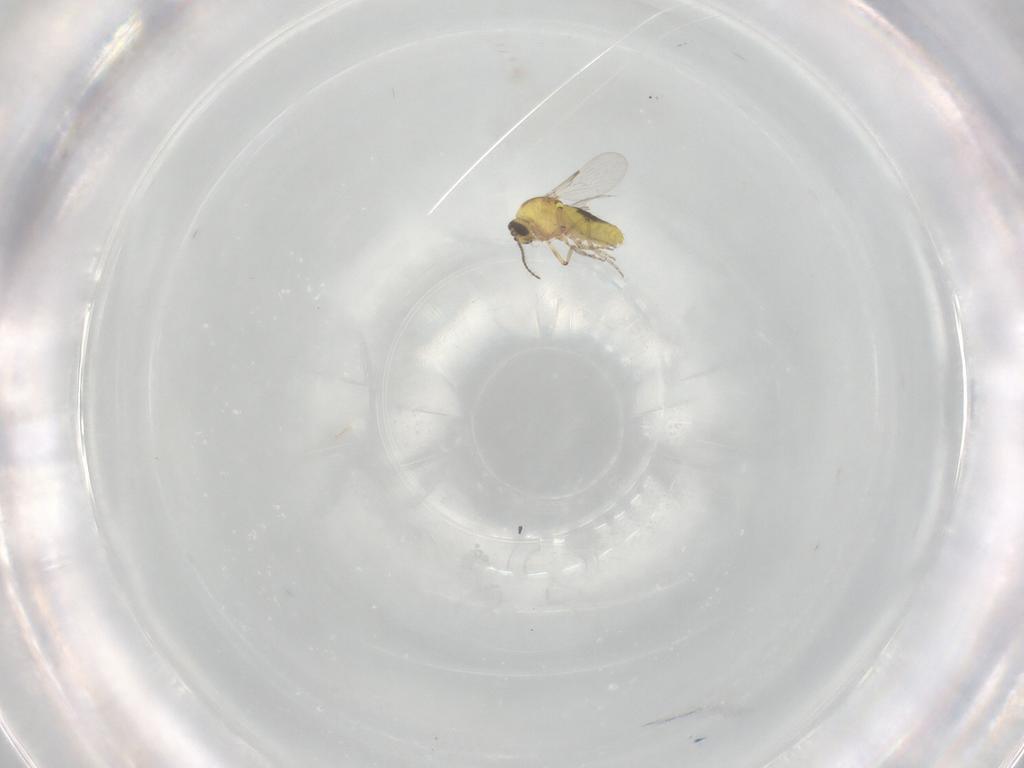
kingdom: Animalia
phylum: Arthropoda
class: Insecta
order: Diptera
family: Ceratopogonidae
